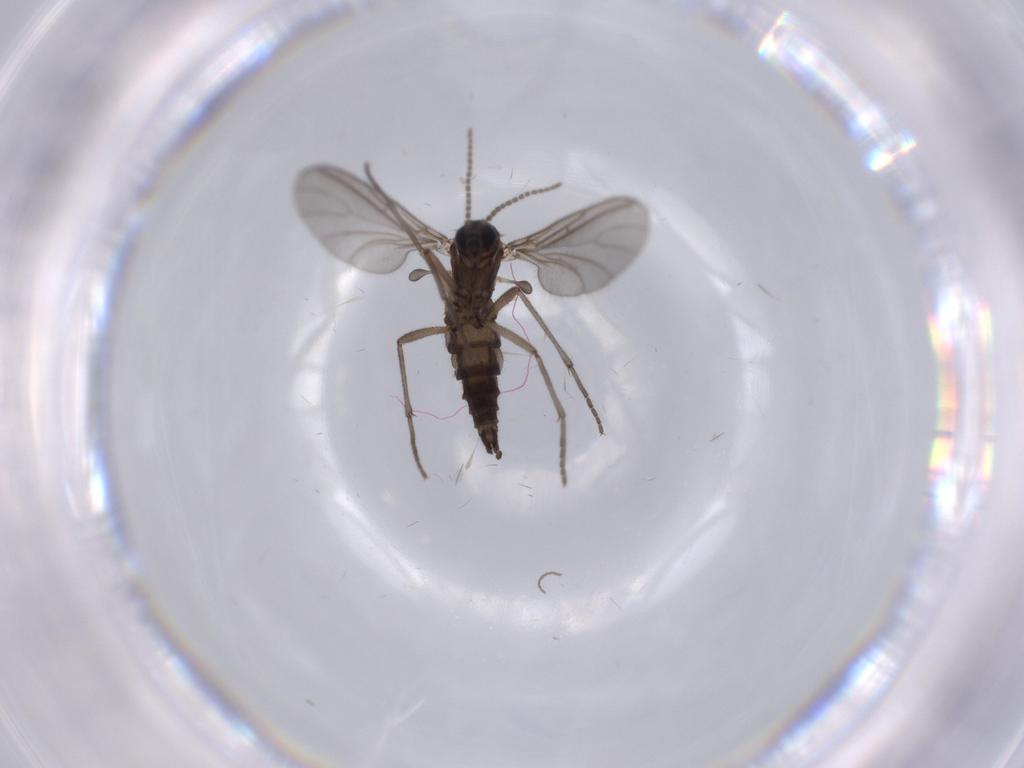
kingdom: Animalia
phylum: Arthropoda
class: Insecta
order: Diptera
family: Sciaridae
